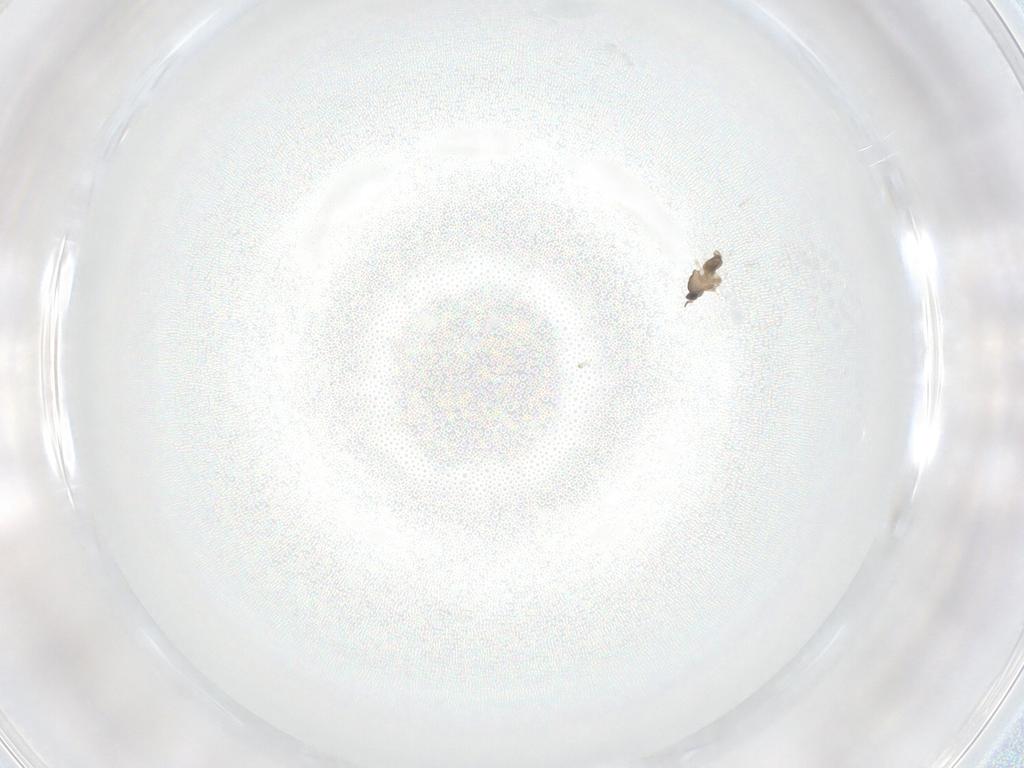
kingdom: Animalia
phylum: Arthropoda
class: Insecta
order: Diptera
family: Cecidomyiidae
